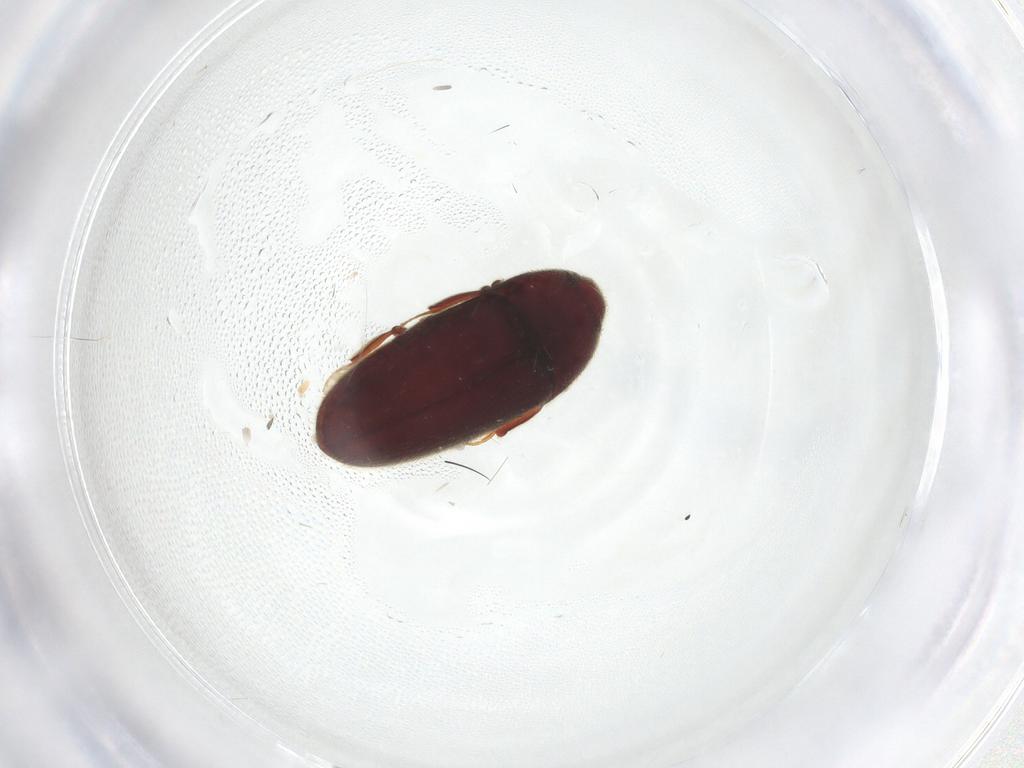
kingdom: Animalia
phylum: Arthropoda
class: Insecta
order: Coleoptera
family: Throscidae
